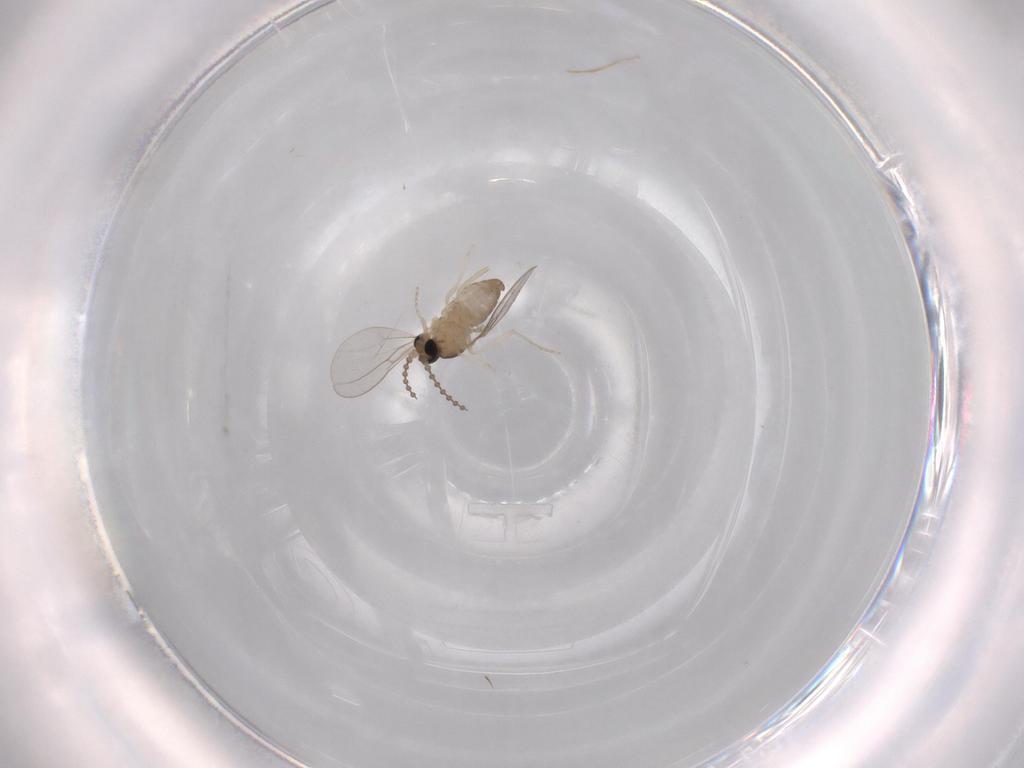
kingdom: Animalia
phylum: Arthropoda
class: Insecta
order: Diptera
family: Cecidomyiidae
